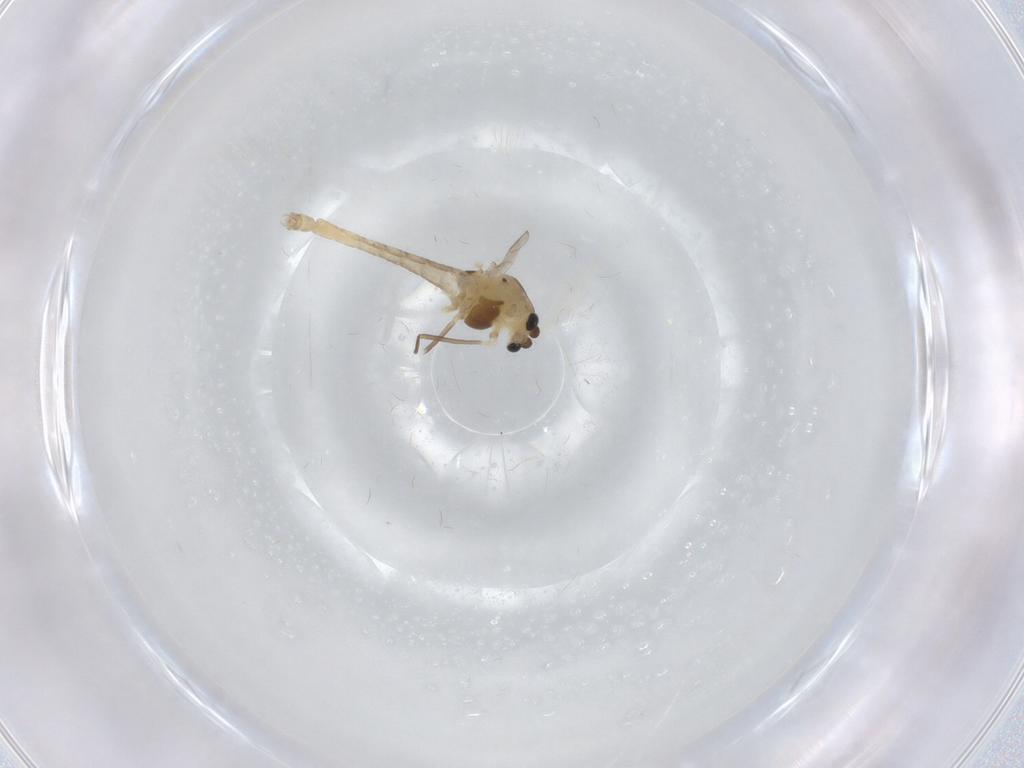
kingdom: Animalia
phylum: Arthropoda
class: Insecta
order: Diptera
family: Chironomidae
